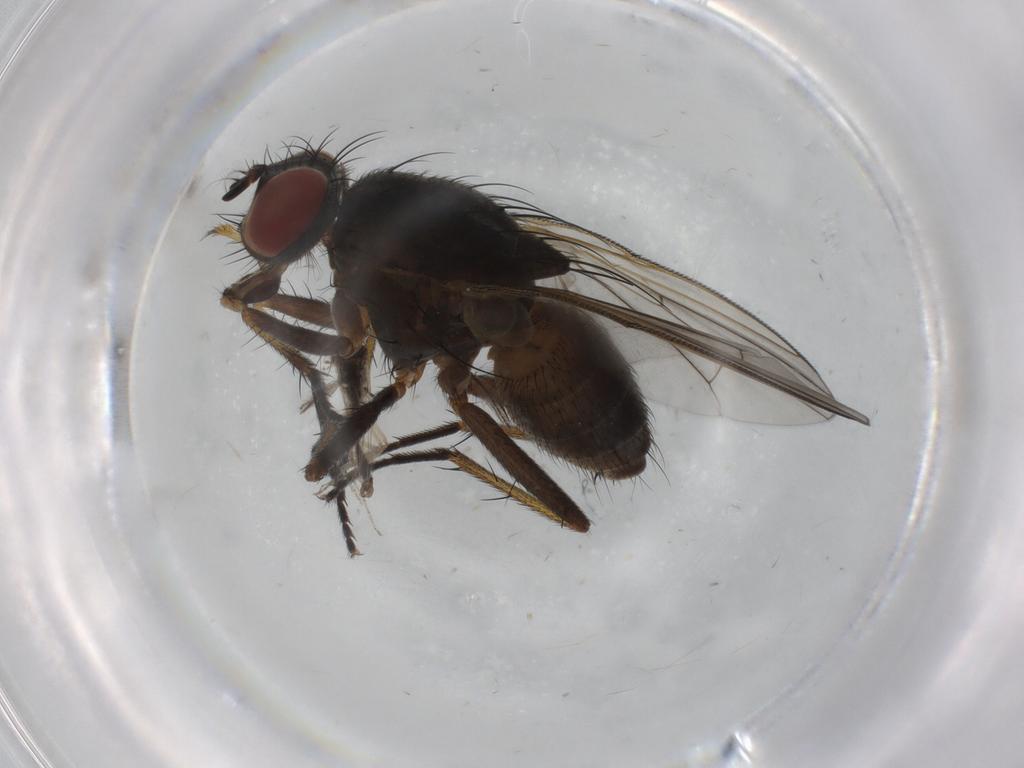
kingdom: Animalia
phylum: Arthropoda
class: Insecta
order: Diptera
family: Ceratopogonidae
